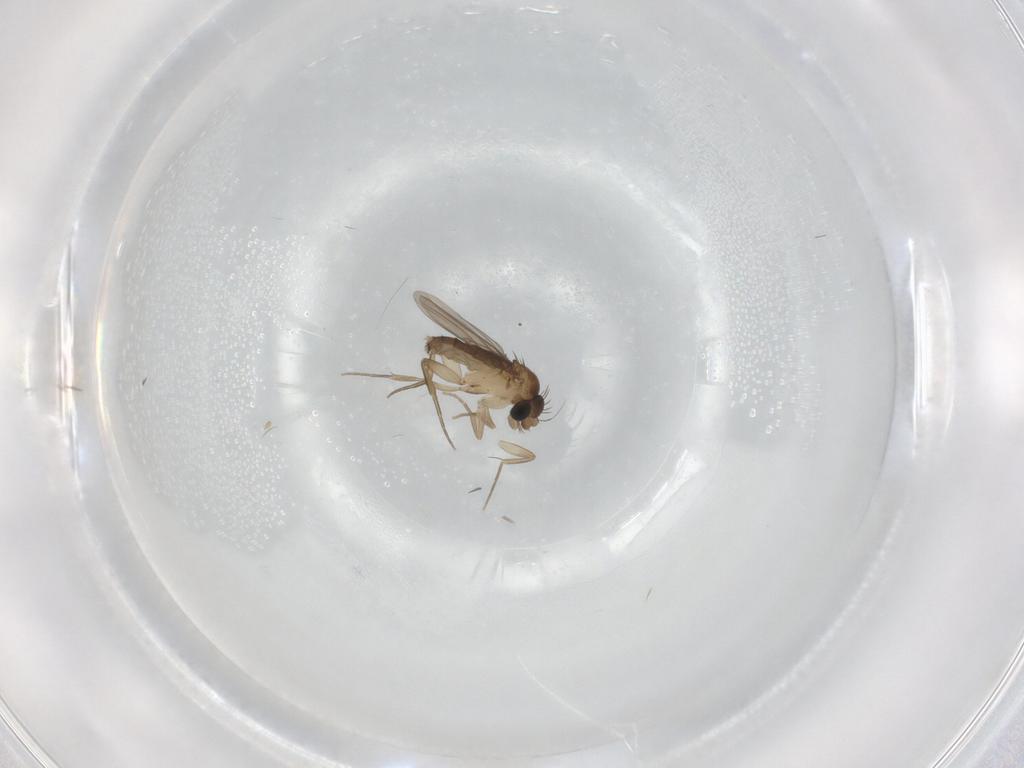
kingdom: Animalia
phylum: Arthropoda
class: Insecta
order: Diptera
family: Phoridae
